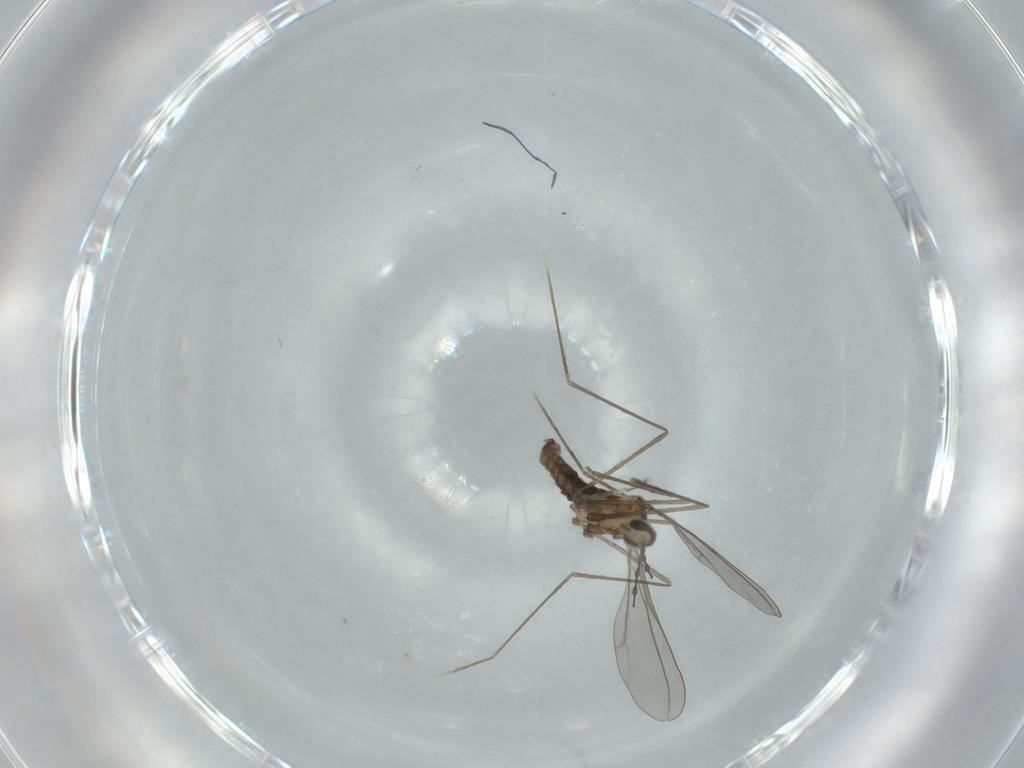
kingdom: Animalia
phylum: Arthropoda
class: Insecta
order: Diptera
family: Cecidomyiidae
